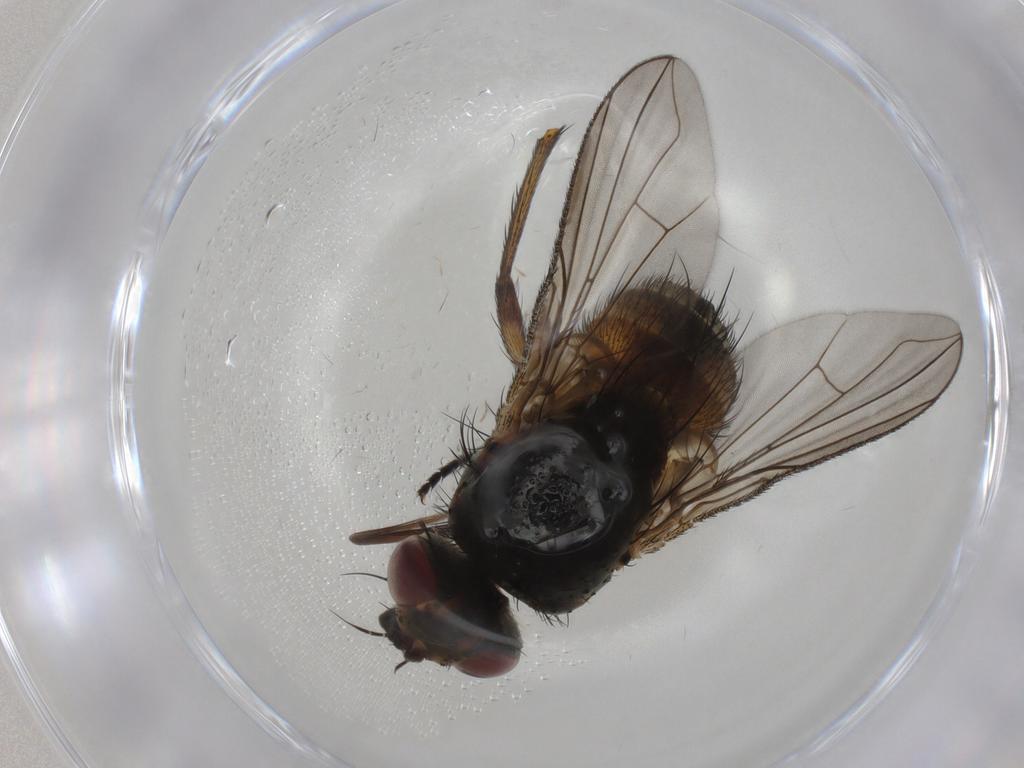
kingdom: Animalia
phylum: Arthropoda
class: Insecta
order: Diptera
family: Tachinidae
